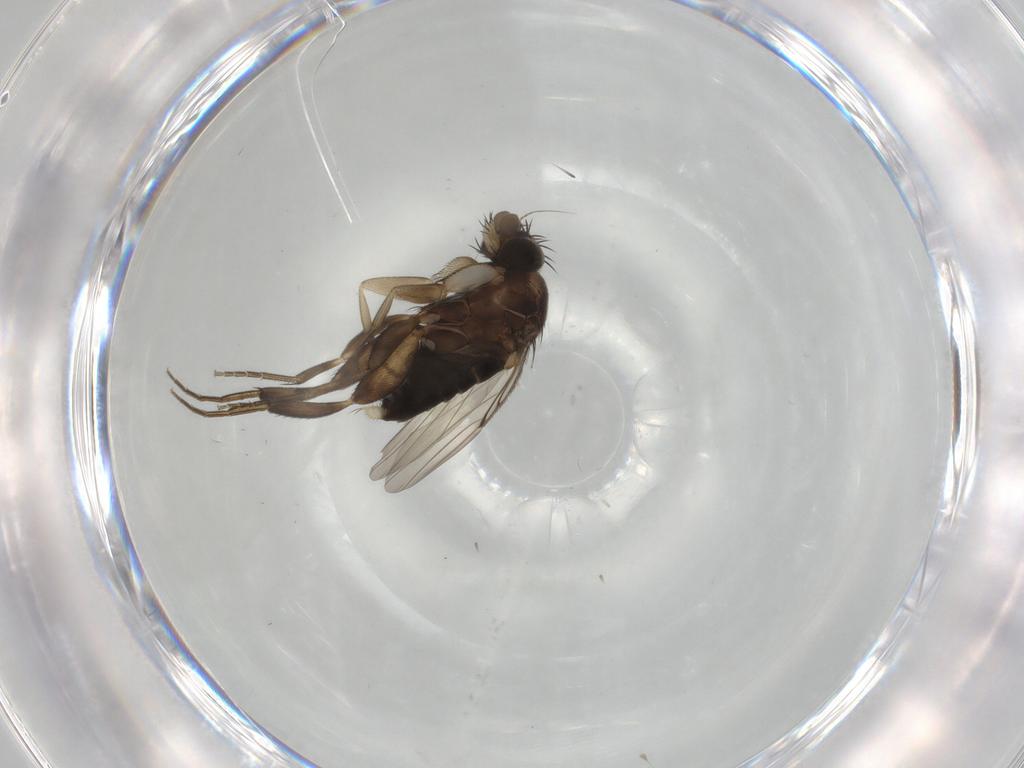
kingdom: Animalia
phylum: Arthropoda
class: Insecta
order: Diptera
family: Phoridae
